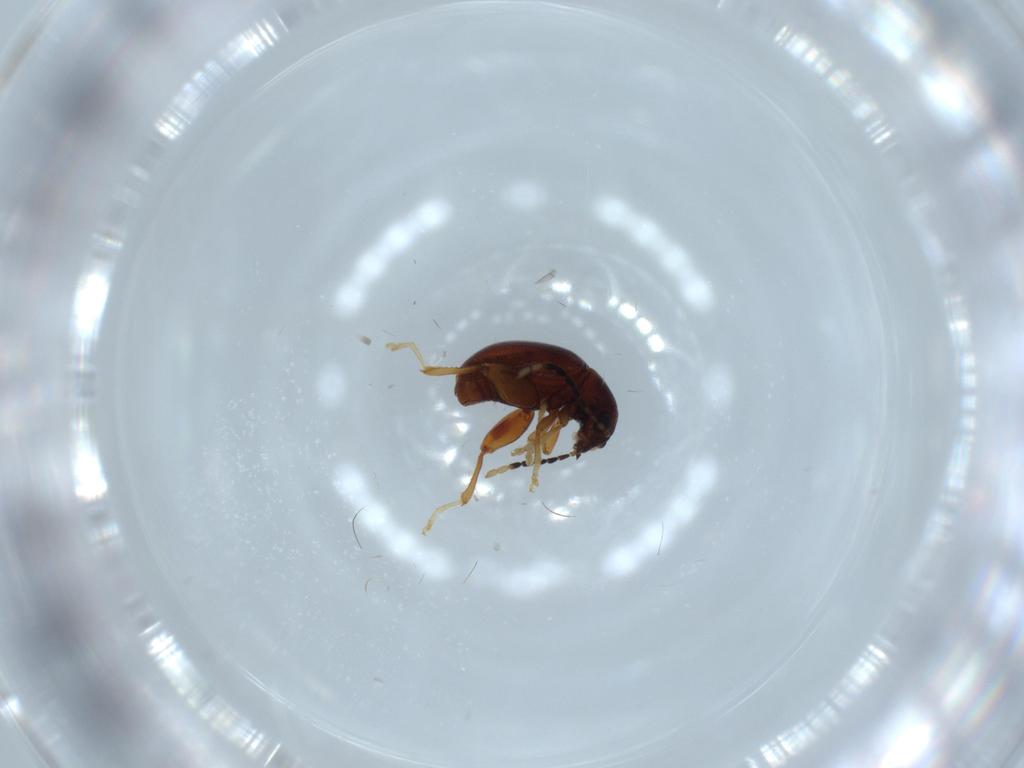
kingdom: Animalia
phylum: Arthropoda
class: Insecta
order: Coleoptera
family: Chrysomelidae
